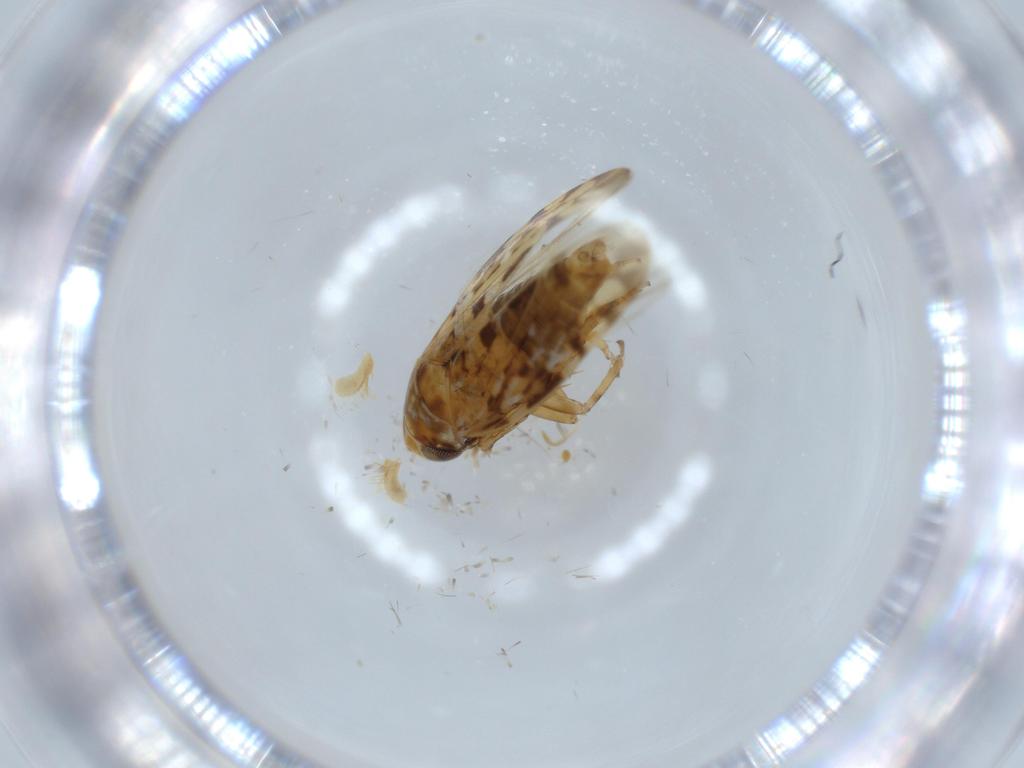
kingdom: Animalia
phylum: Arthropoda
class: Insecta
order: Hemiptera
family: Cicadellidae
